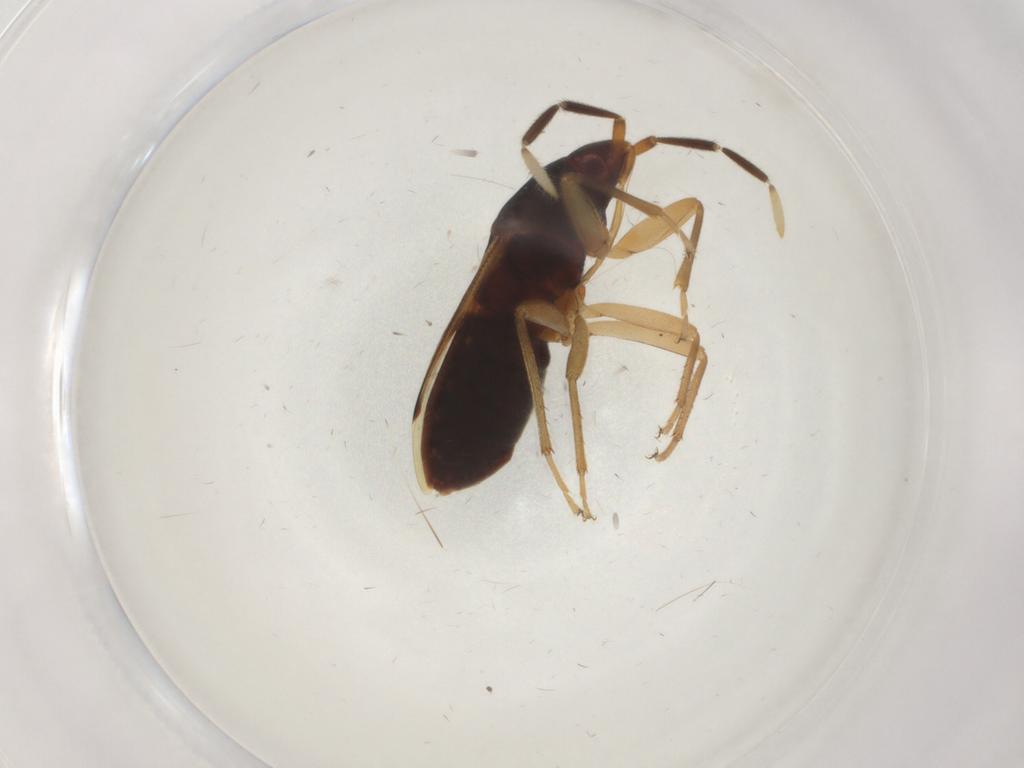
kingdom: Animalia
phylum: Arthropoda
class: Insecta
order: Hemiptera
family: Rhyparochromidae
